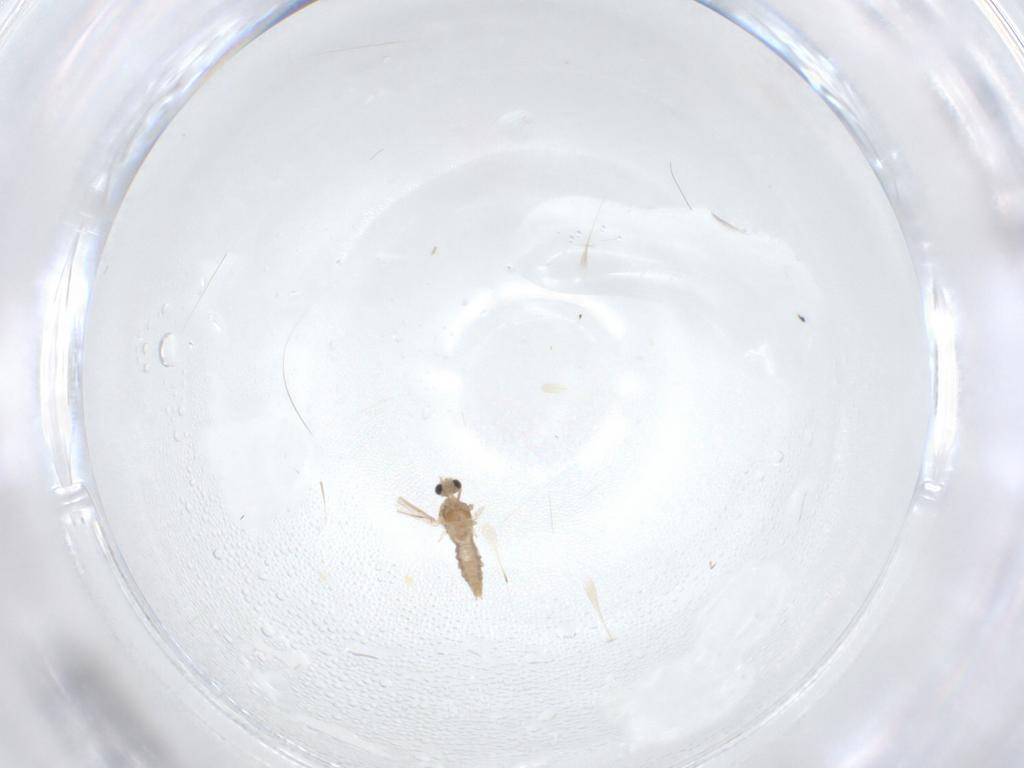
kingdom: Animalia
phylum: Arthropoda
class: Insecta
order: Diptera
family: Cecidomyiidae
